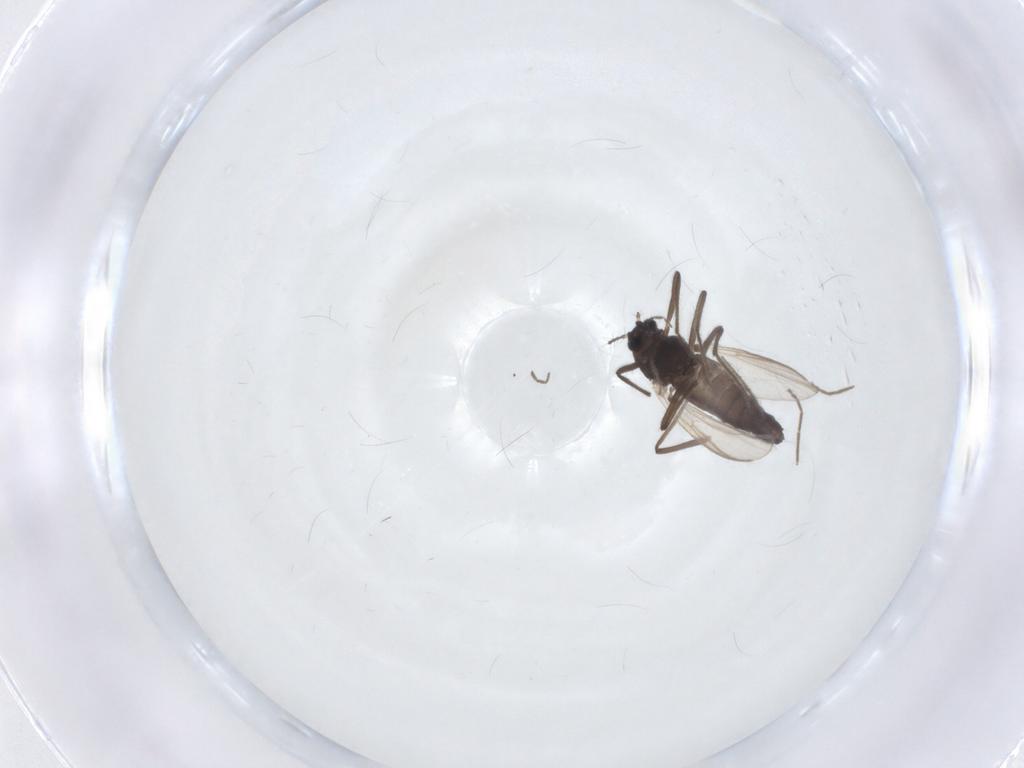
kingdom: Animalia
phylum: Arthropoda
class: Insecta
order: Diptera
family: Chironomidae
